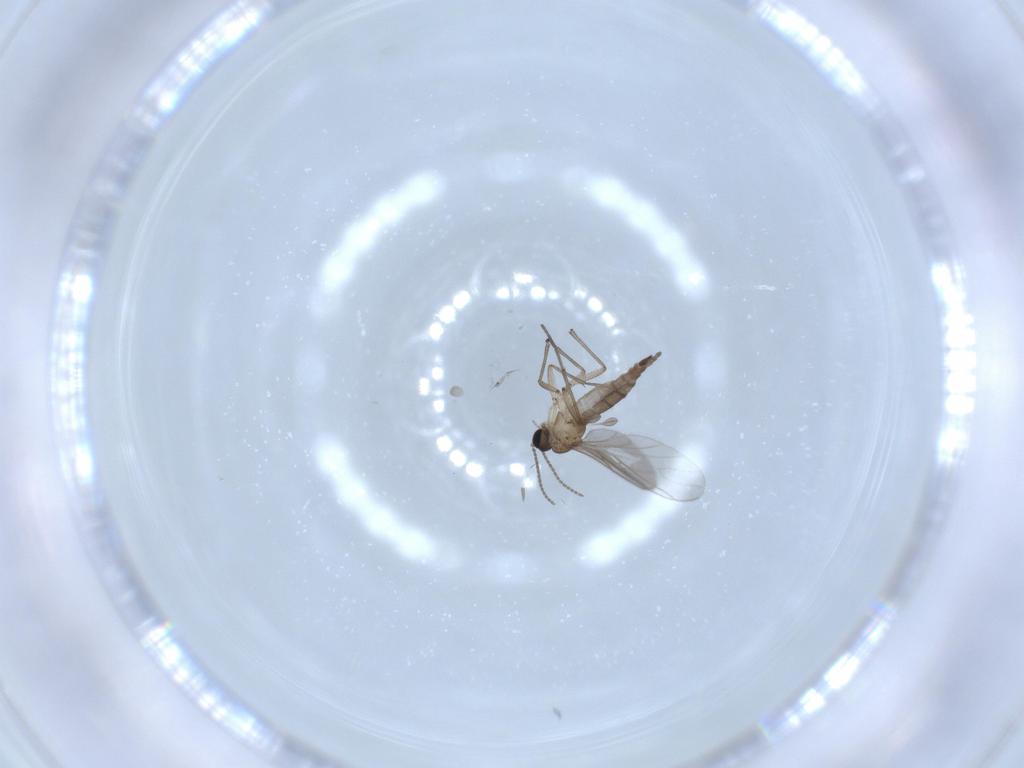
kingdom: Animalia
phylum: Arthropoda
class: Insecta
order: Diptera
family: Sciaridae
